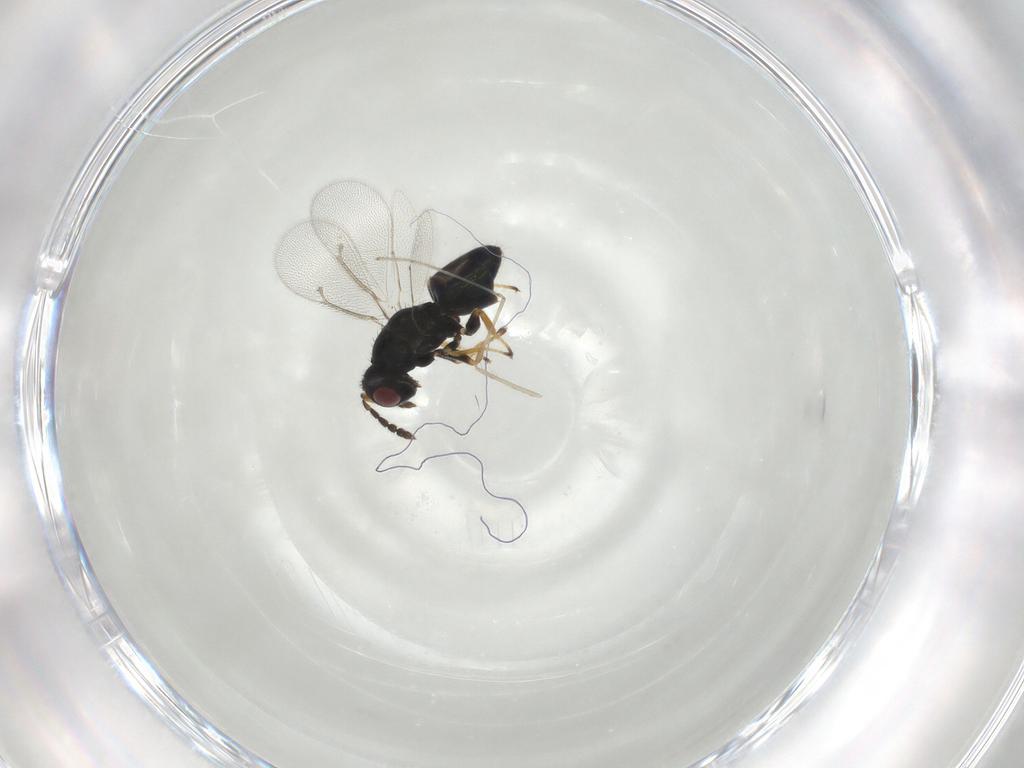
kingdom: Animalia
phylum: Arthropoda
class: Insecta
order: Hymenoptera
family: Eulophidae
